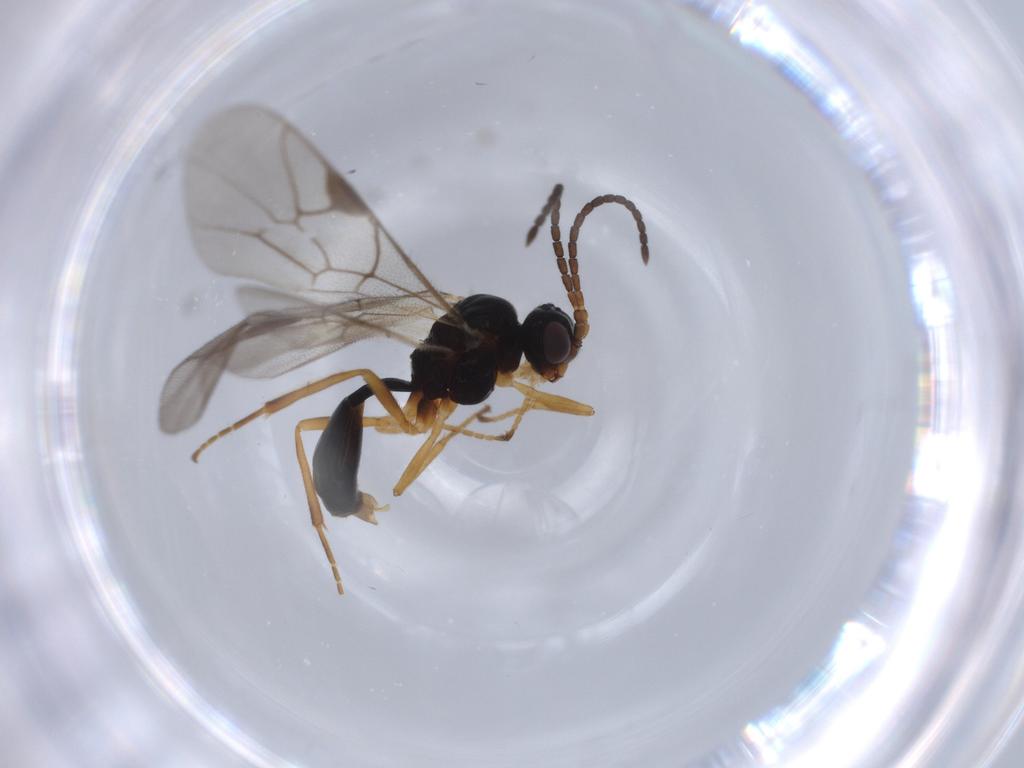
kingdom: Animalia
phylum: Arthropoda
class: Insecta
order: Hymenoptera
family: Ichneumonidae
